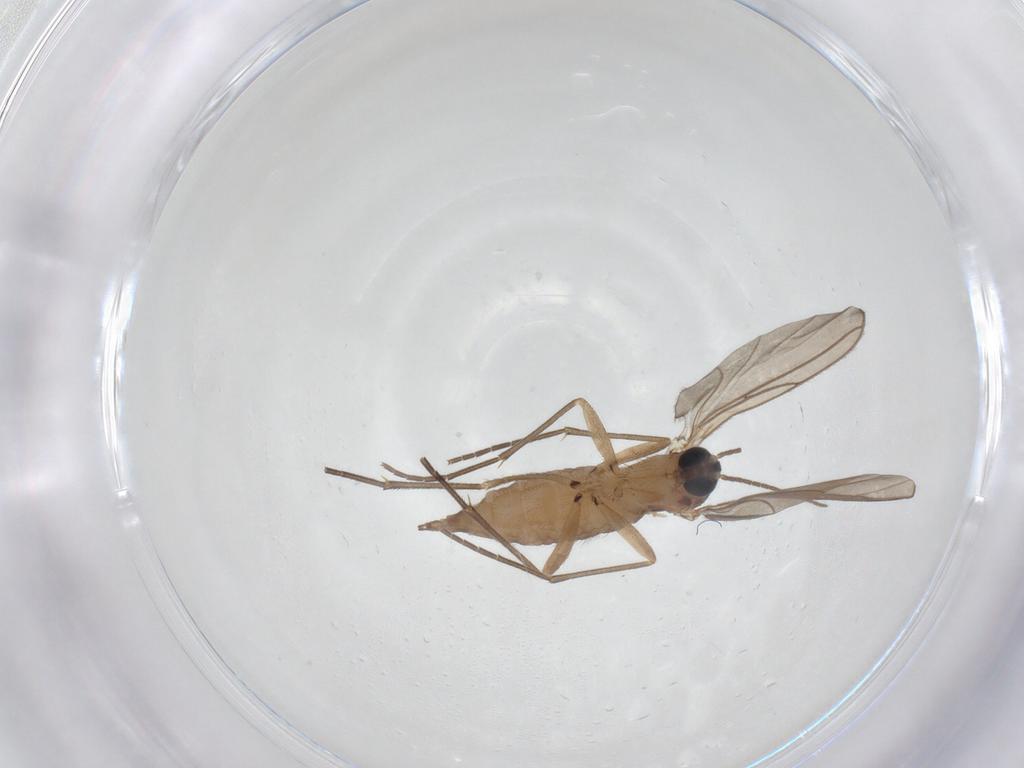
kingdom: Animalia
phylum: Arthropoda
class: Insecta
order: Diptera
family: Sciaridae
